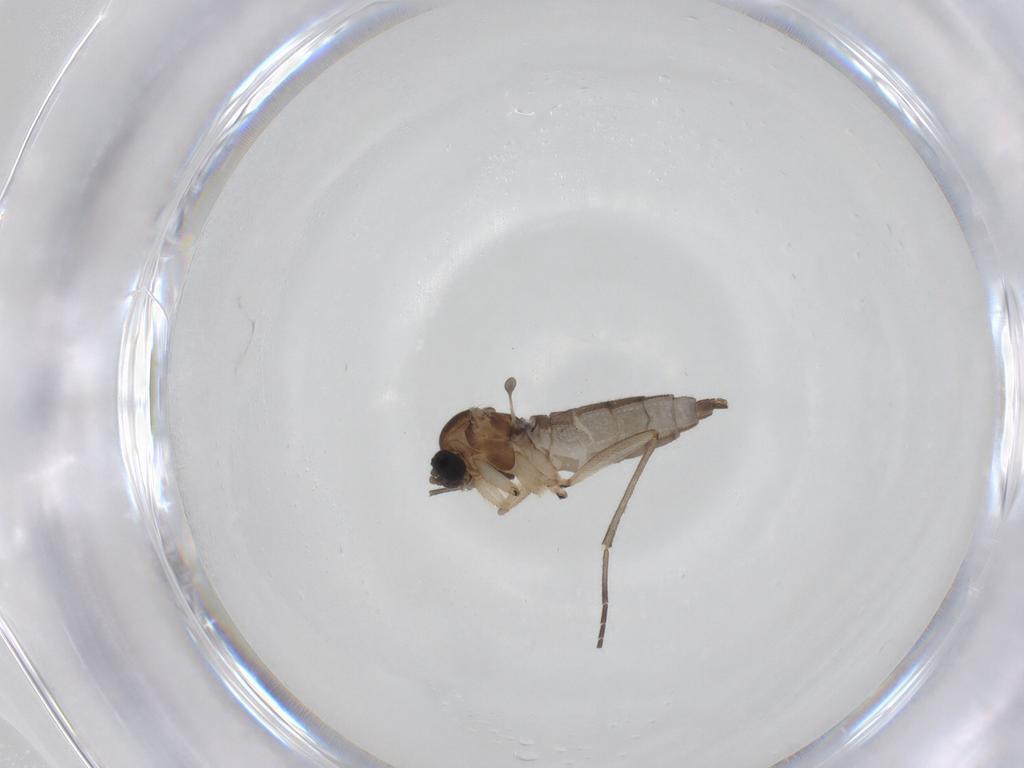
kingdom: Animalia
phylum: Arthropoda
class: Insecta
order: Diptera
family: Sciaridae
